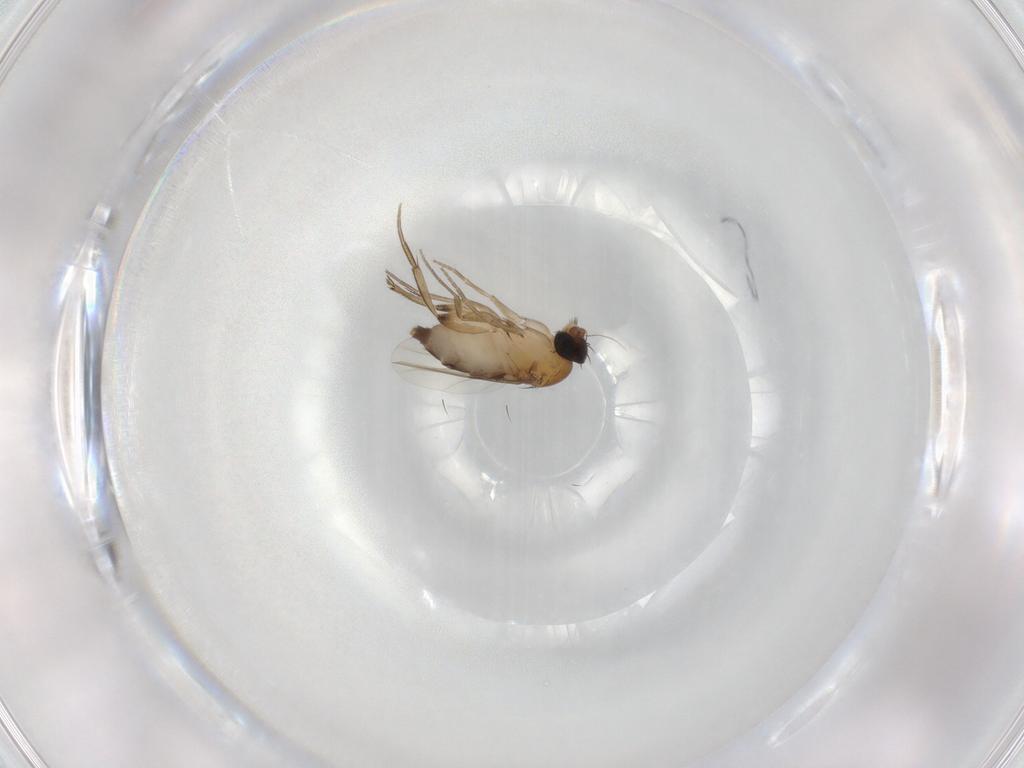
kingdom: Animalia
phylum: Arthropoda
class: Insecta
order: Diptera
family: Phoridae
